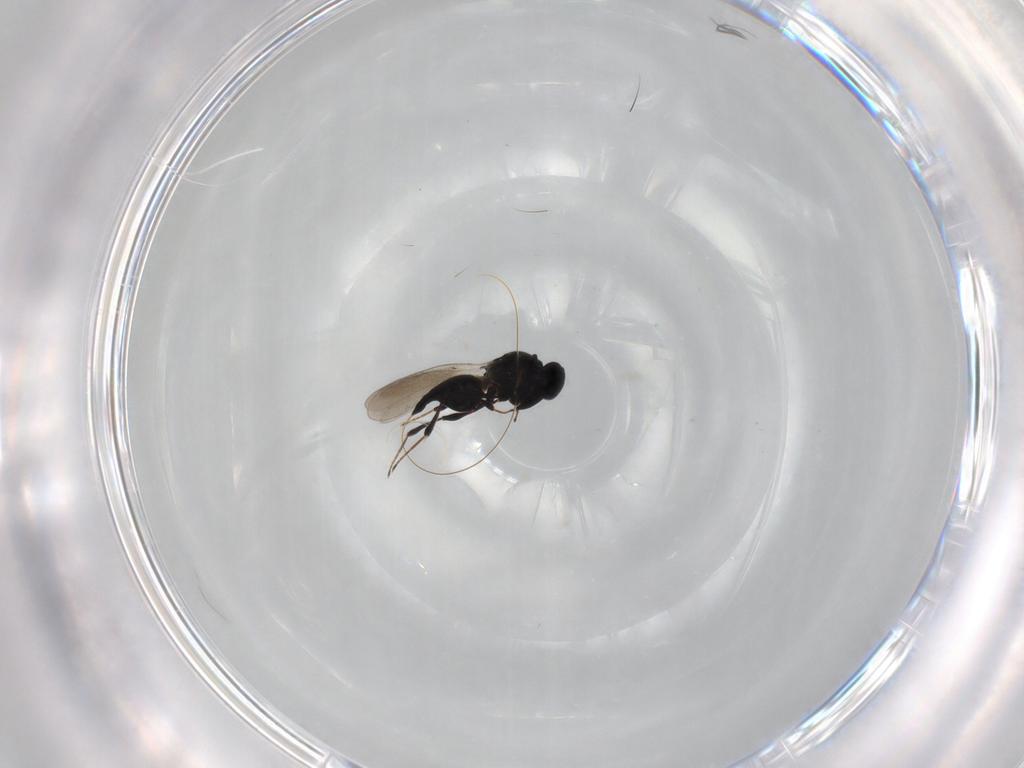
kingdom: Animalia
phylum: Arthropoda
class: Insecta
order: Hymenoptera
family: Platygastridae
